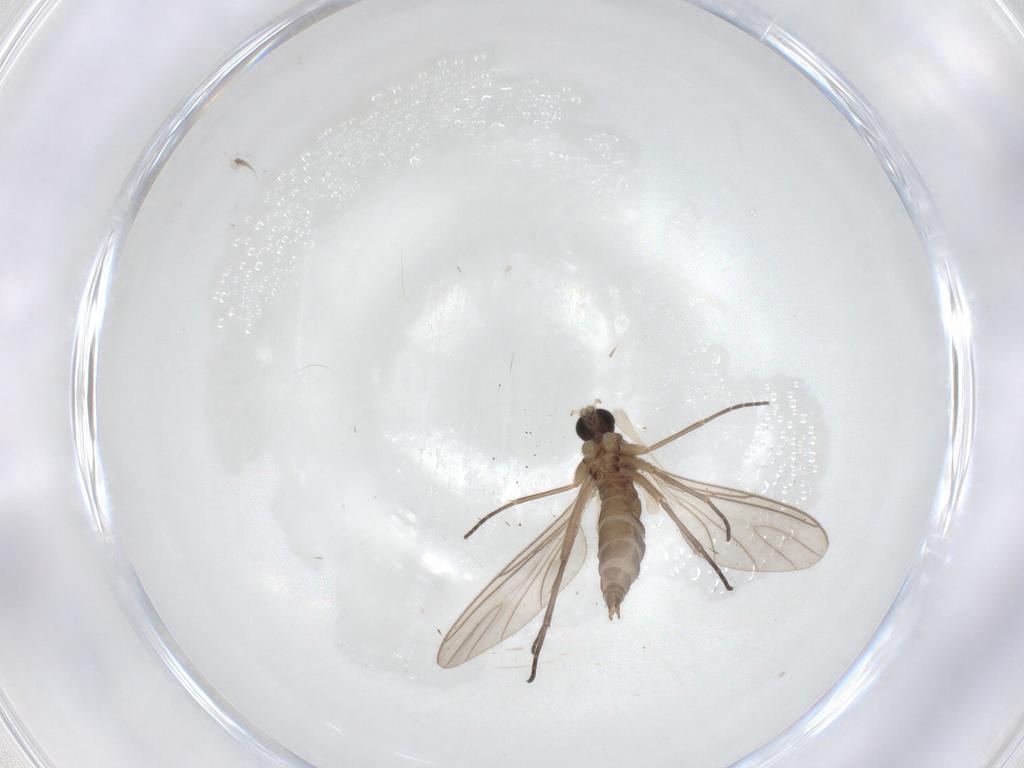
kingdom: Animalia
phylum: Arthropoda
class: Insecta
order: Diptera
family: Sciaridae
